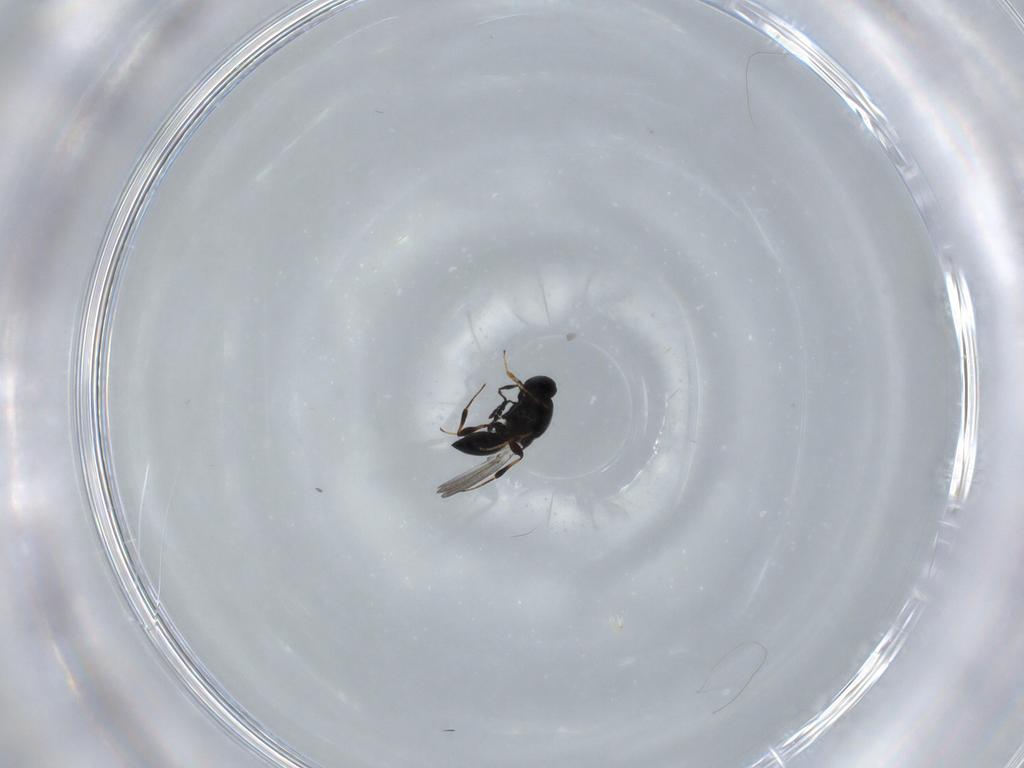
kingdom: Animalia
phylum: Arthropoda
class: Insecta
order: Hymenoptera
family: Platygastridae
